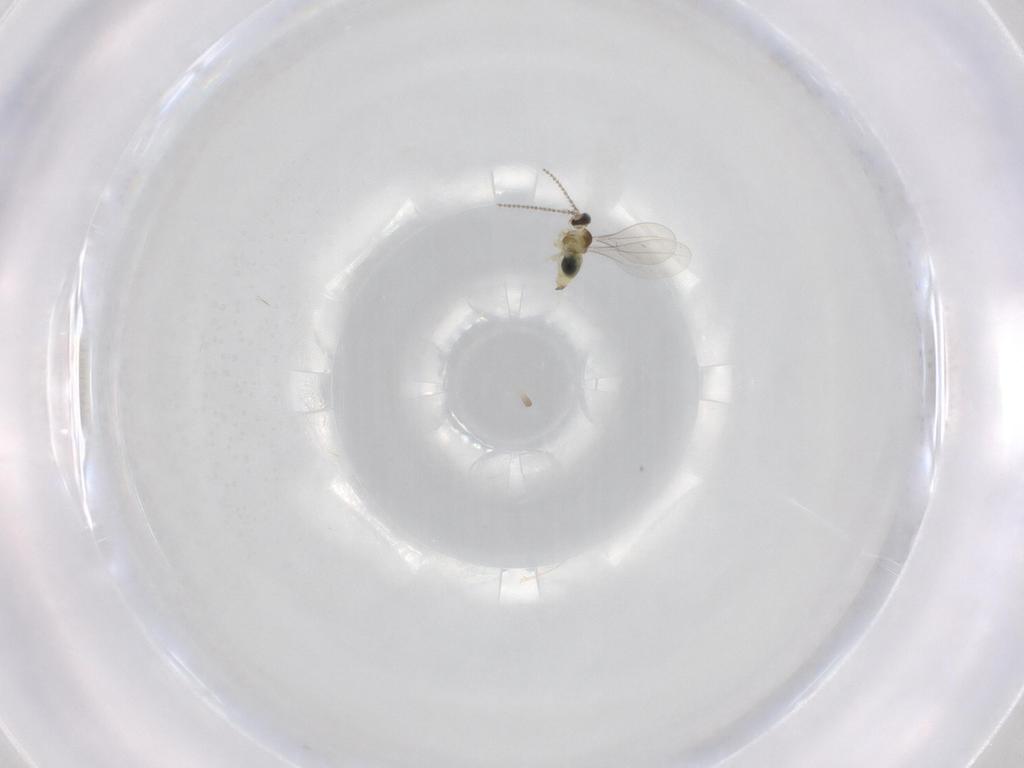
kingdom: Animalia
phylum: Arthropoda
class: Insecta
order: Diptera
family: Cecidomyiidae
